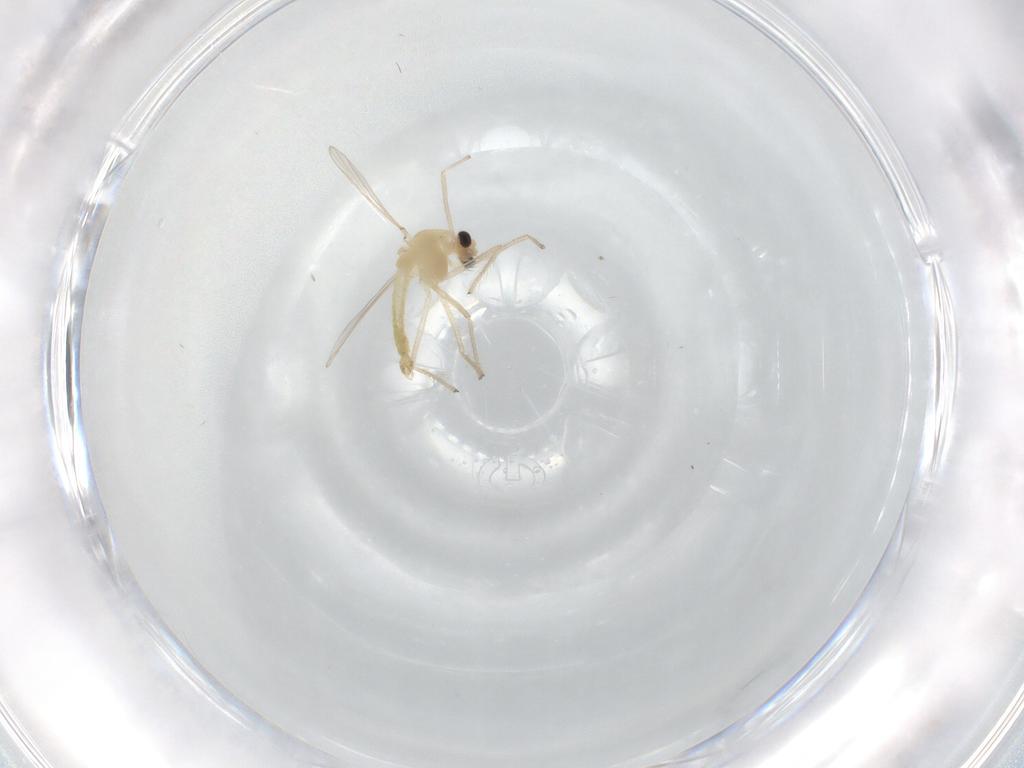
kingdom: Animalia
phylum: Arthropoda
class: Insecta
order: Diptera
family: Chironomidae
